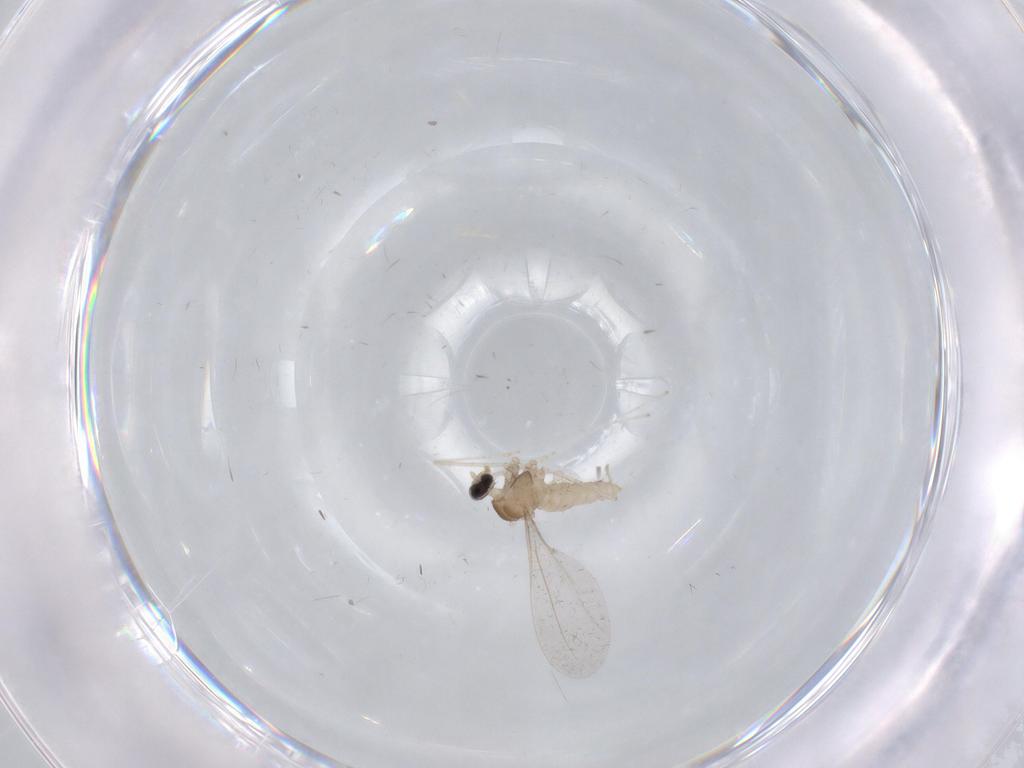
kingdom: Animalia
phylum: Arthropoda
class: Insecta
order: Diptera
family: Cecidomyiidae
